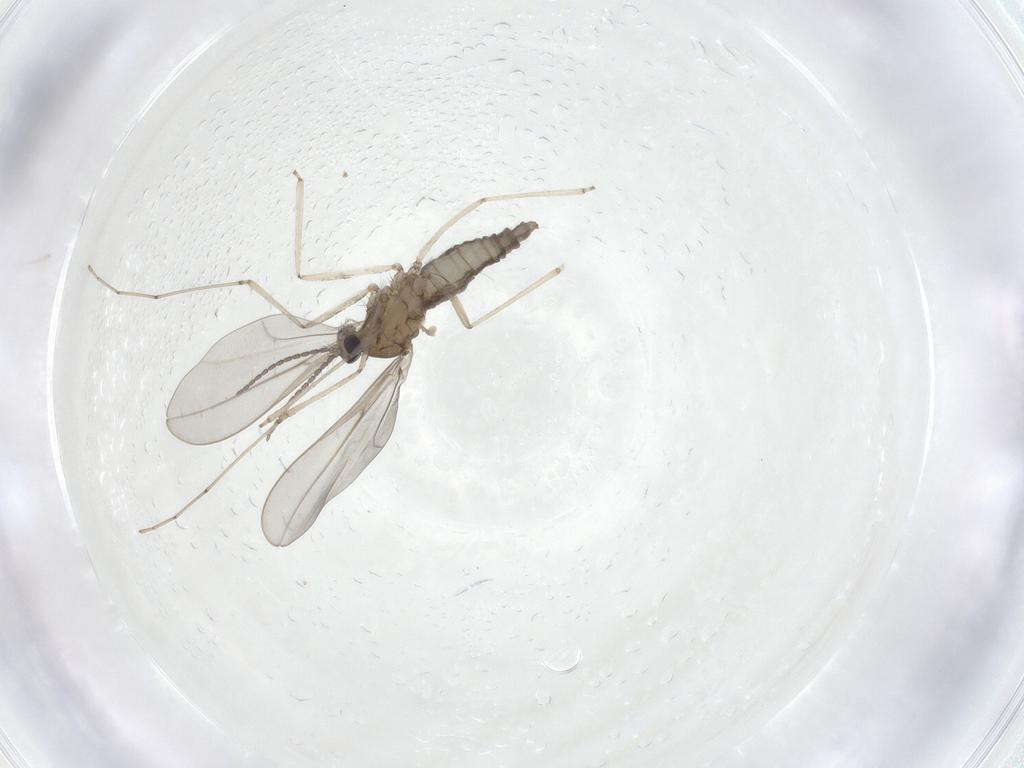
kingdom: Animalia
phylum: Arthropoda
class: Insecta
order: Diptera
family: Cecidomyiidae
